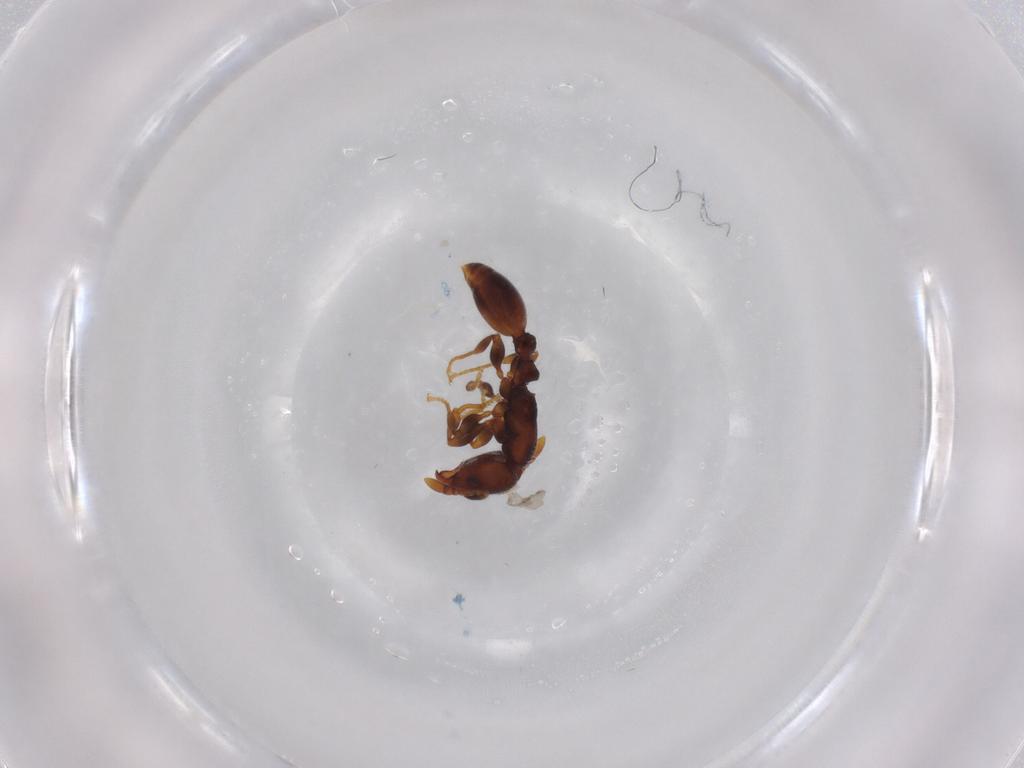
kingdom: Animalia
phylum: Arthropoda
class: Insecta
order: Hymenoptera
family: Formicidae
